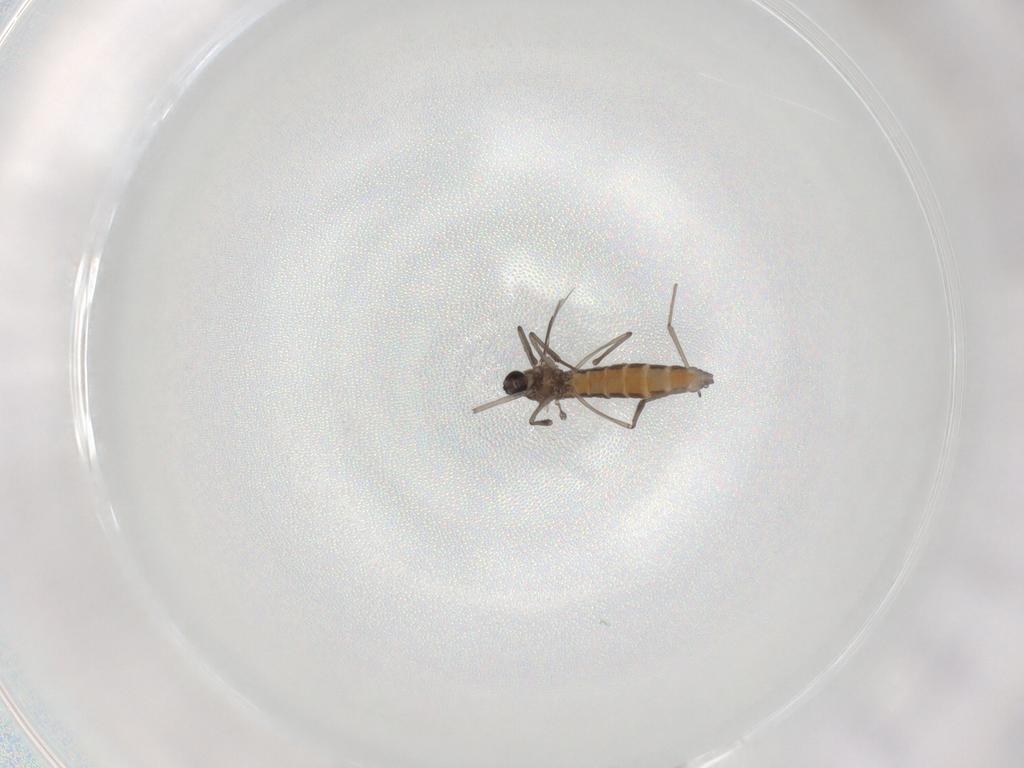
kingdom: Animalia
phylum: Arthropoda
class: Insecta
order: Diptera
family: Cecidomyiidae
